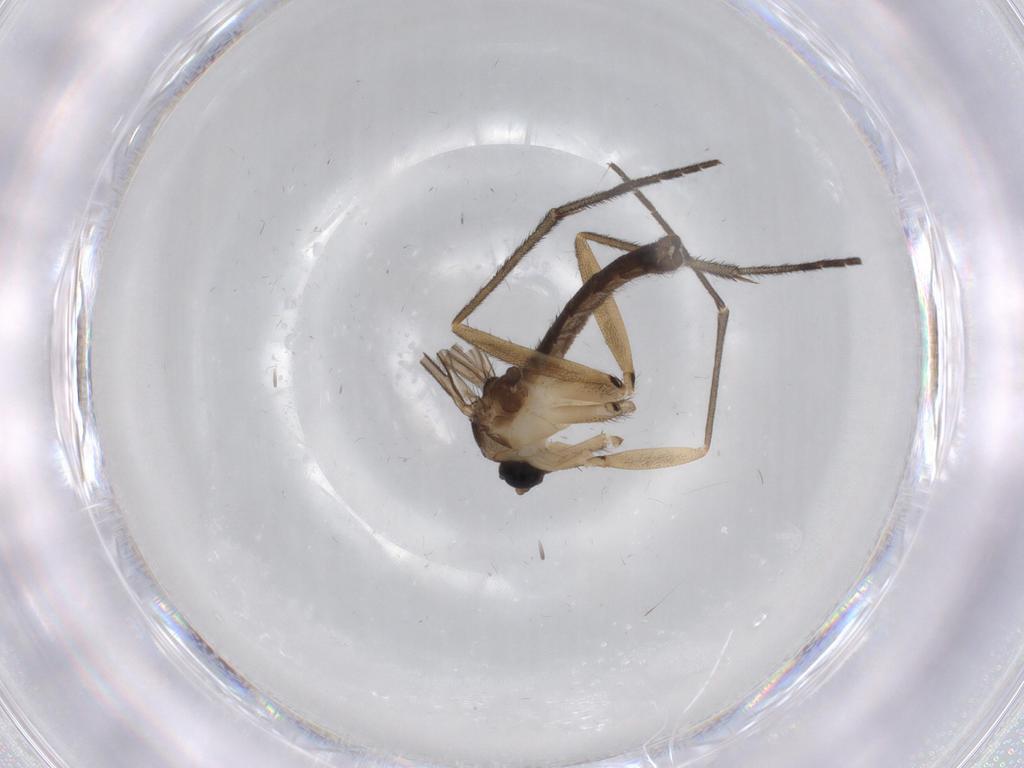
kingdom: Animalia
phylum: Arthropoda
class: Insecta
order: Diptera
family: Sciaridae
